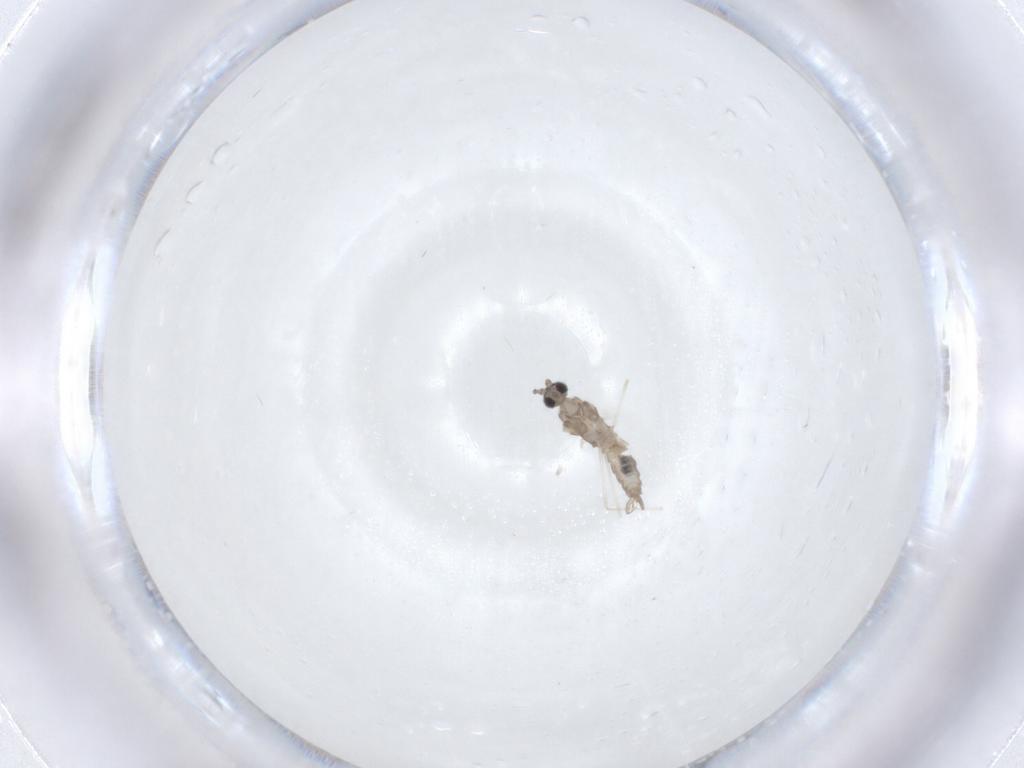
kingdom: Animalia
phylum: Arthropoda
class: Insecta
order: Diptera
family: Cecidomyiidae
